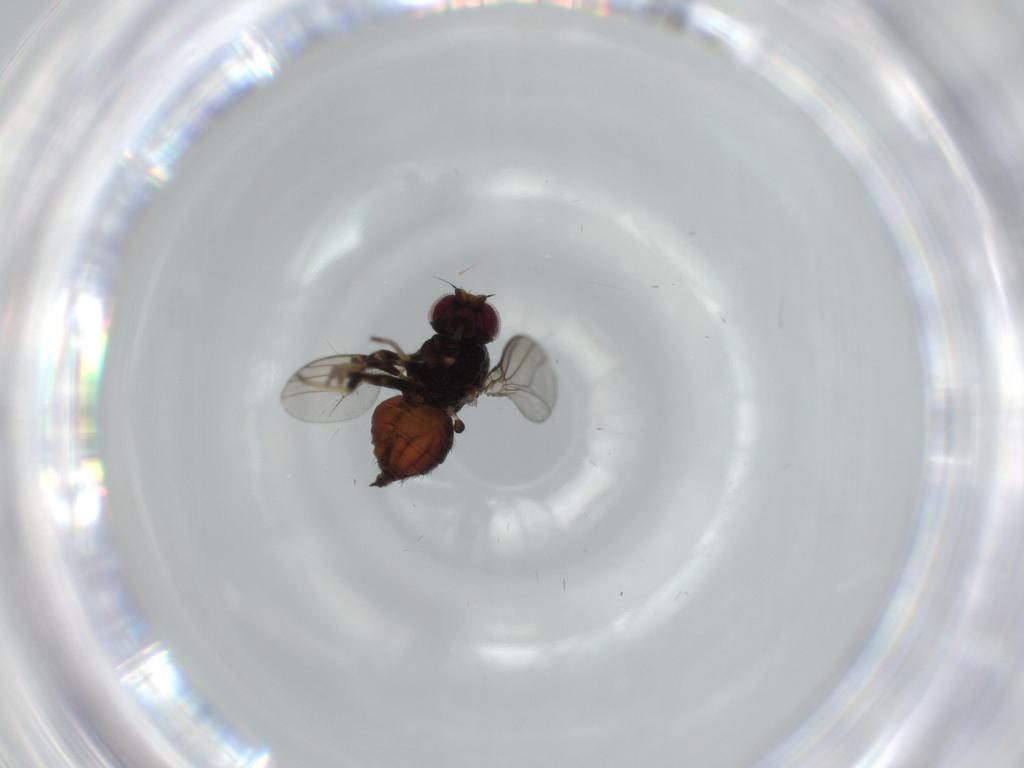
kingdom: Animalia
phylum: Arthropoda
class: Insecta
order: Diptera
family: Chloropidae
